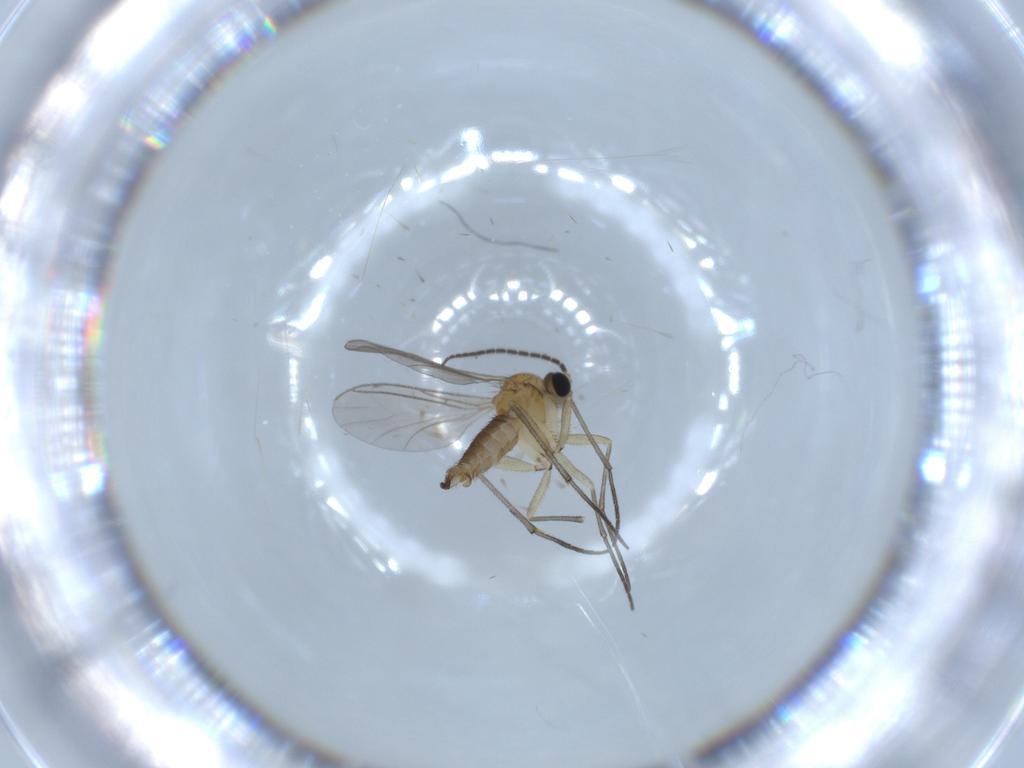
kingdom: Animalia
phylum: Arthropoda
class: Insecta
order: Diptera
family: Sciaridae
